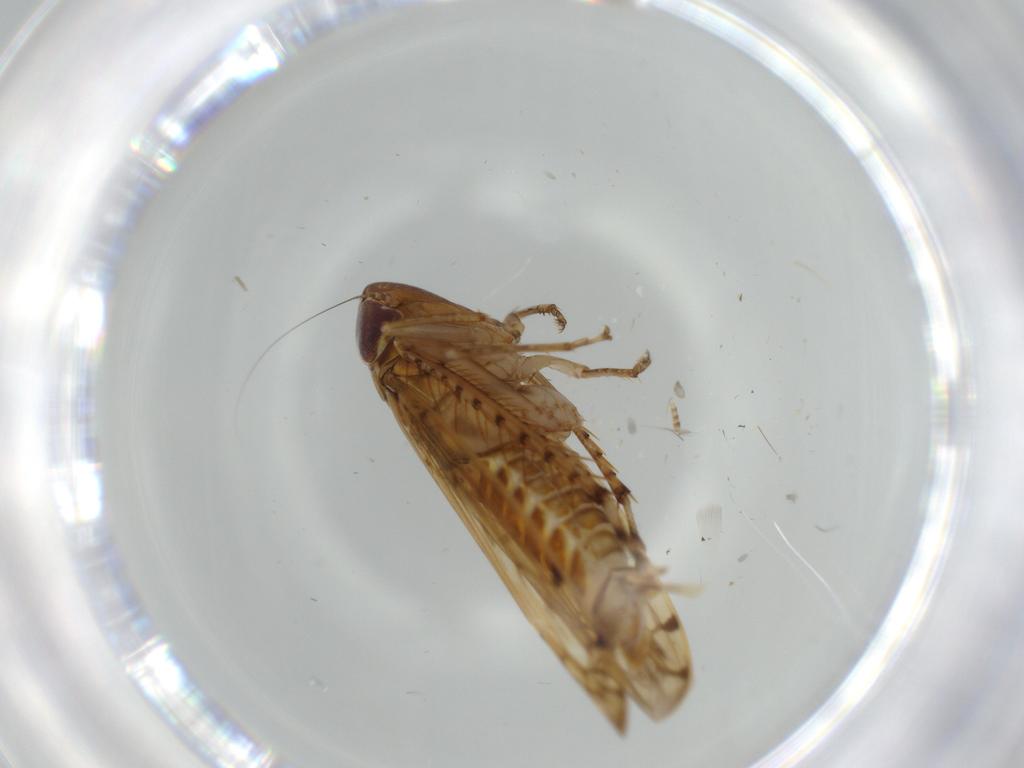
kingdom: Animalia
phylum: Arthropoda
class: Insecta
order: Hemiptera
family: Cicadellidae
